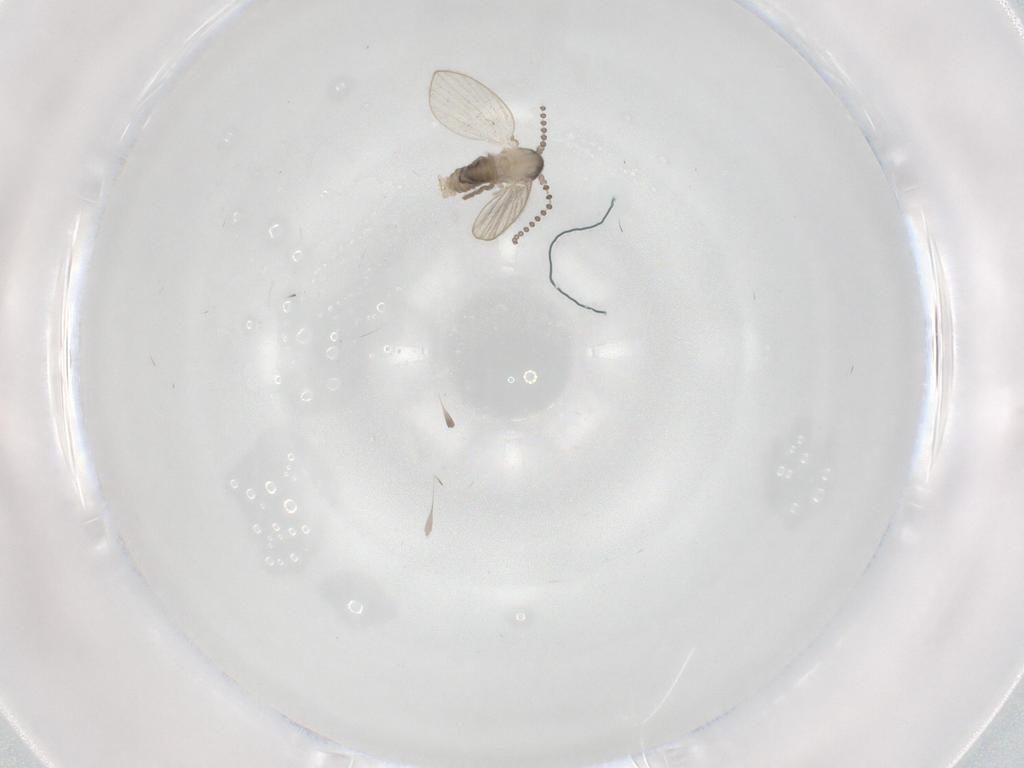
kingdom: Animalia
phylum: Arthropoda
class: Insecta
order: Diptera
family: Psychodidae
